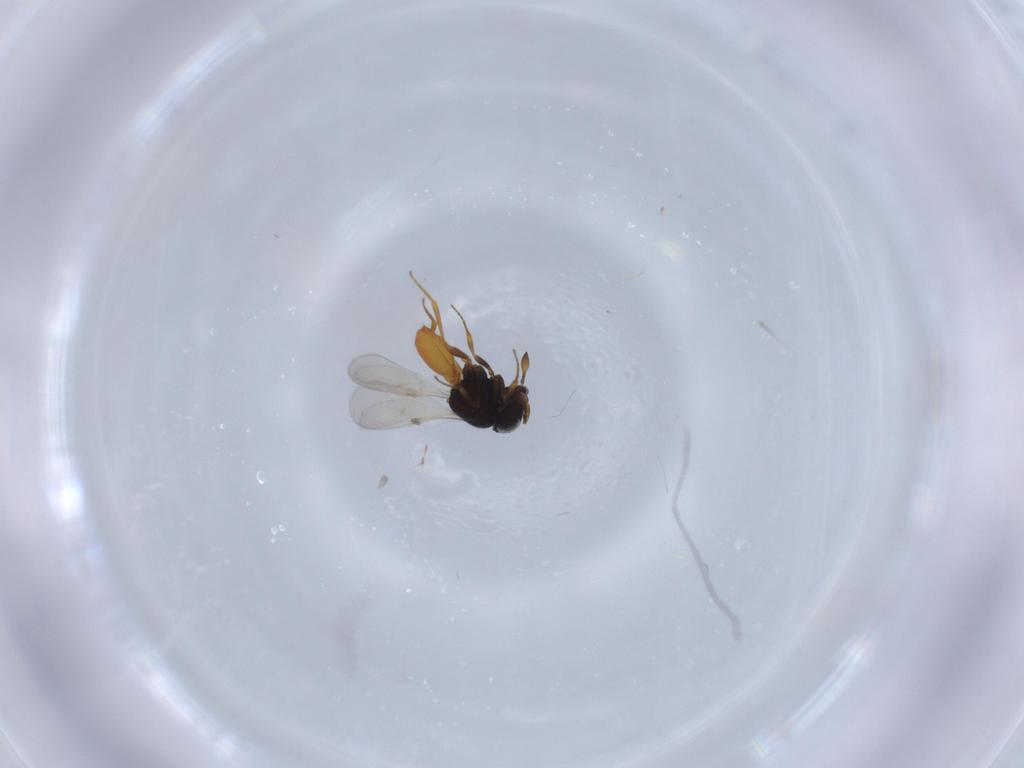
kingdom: Animalia
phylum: Arthropoda
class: Insecta
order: Hymenoptera
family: Scelionidae
